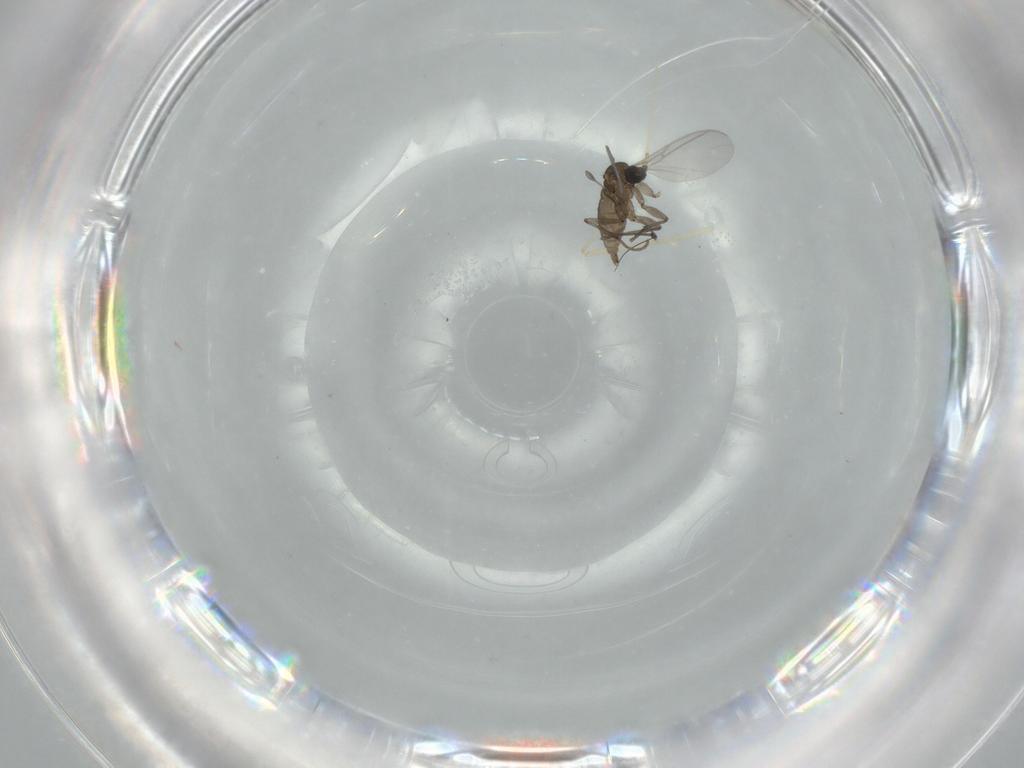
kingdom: Animalia
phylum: Arthropoda
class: Insecta
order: Diptera
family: Sciaridae
